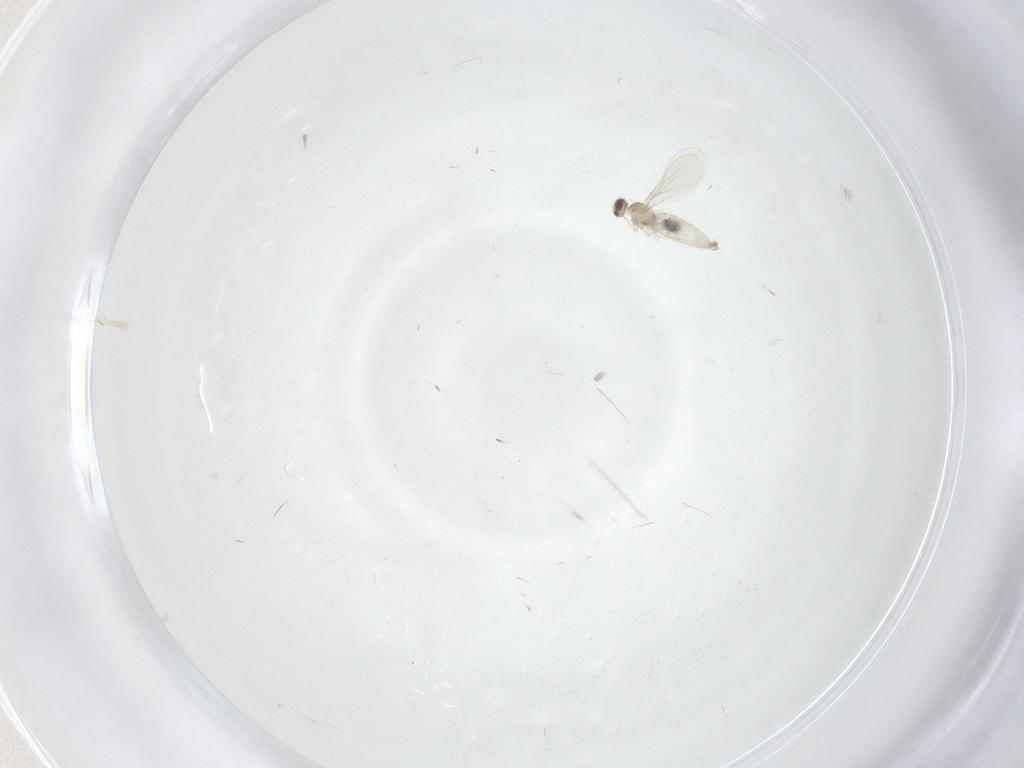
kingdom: Animalia
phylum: Arthropoda
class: Insecta
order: Diptera
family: Cecidomyiidae
